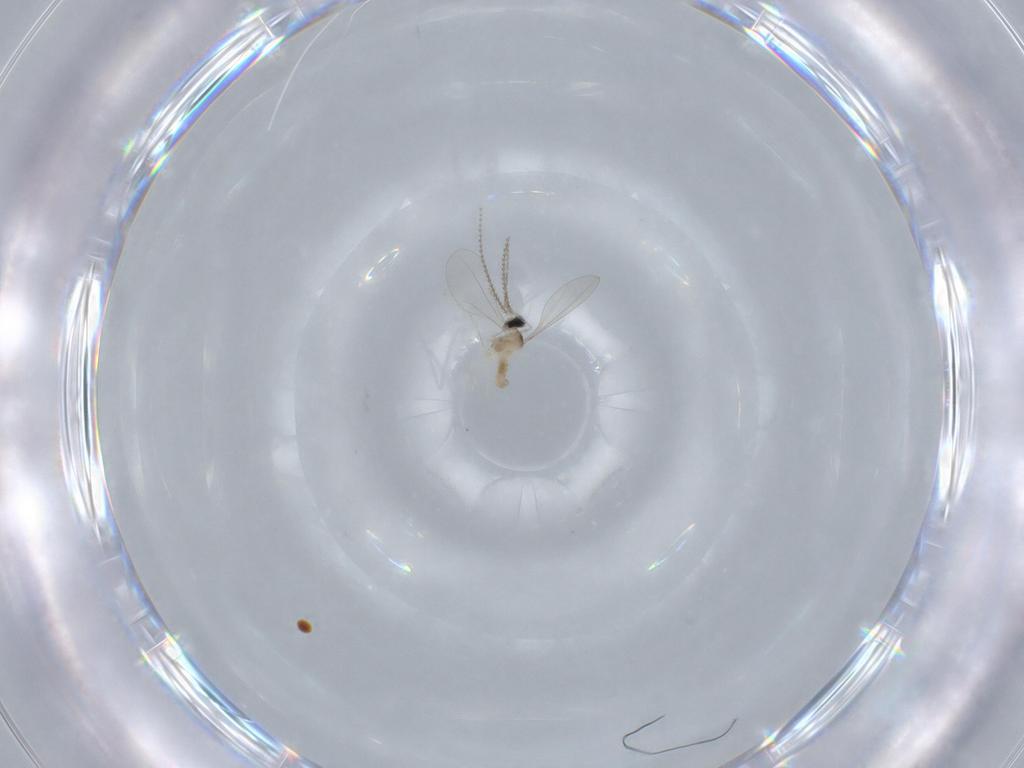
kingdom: Animalia
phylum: Arthropoda
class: Insecta
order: Diptera
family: Cecidomyiidae
